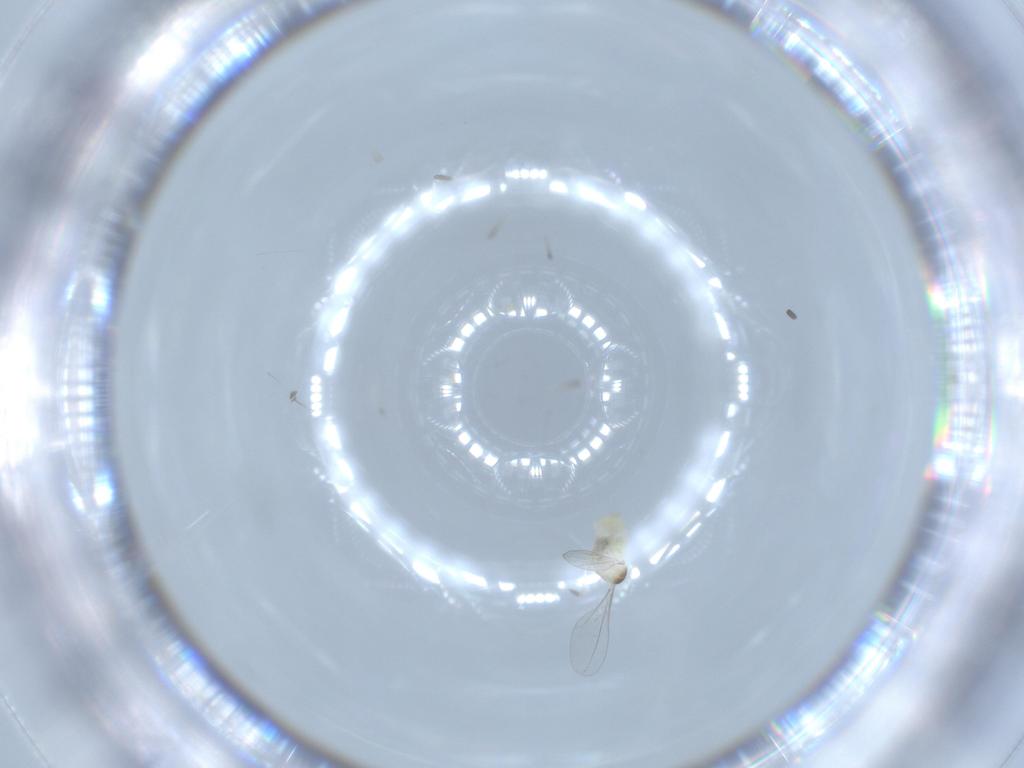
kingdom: Animalia
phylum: Arthropoda
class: Insecta
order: Diptera
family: Cecidomyiidae
